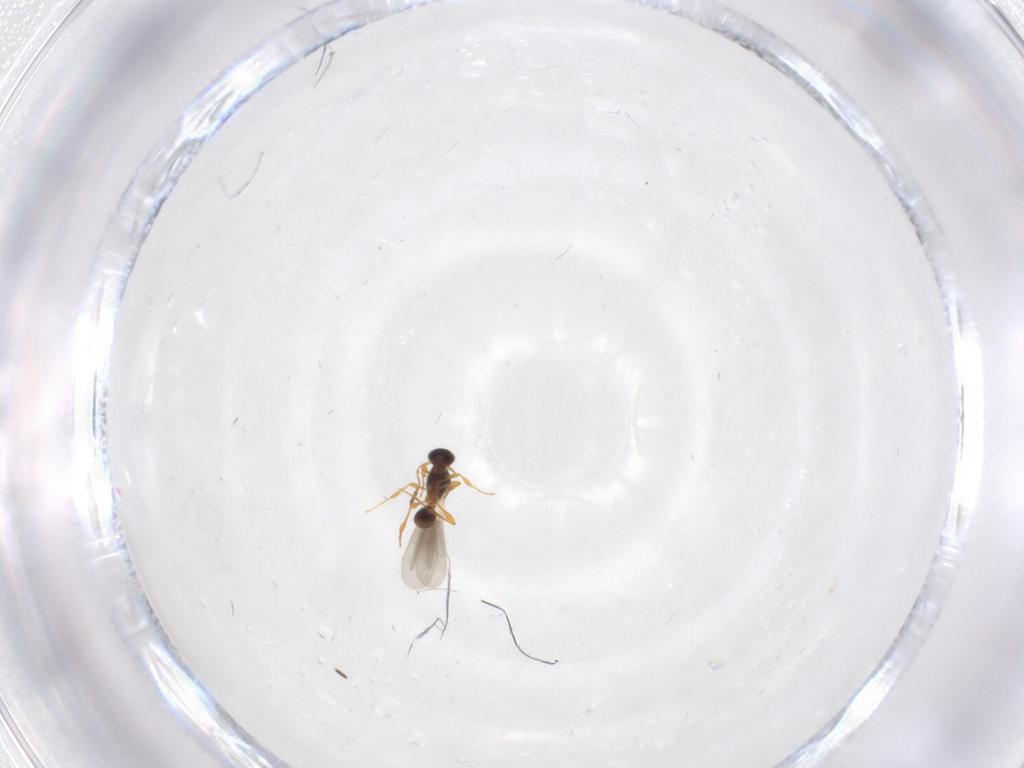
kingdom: Animalia
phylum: Arthropoda
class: Insecta
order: Hymenoptera
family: Platygastridae
